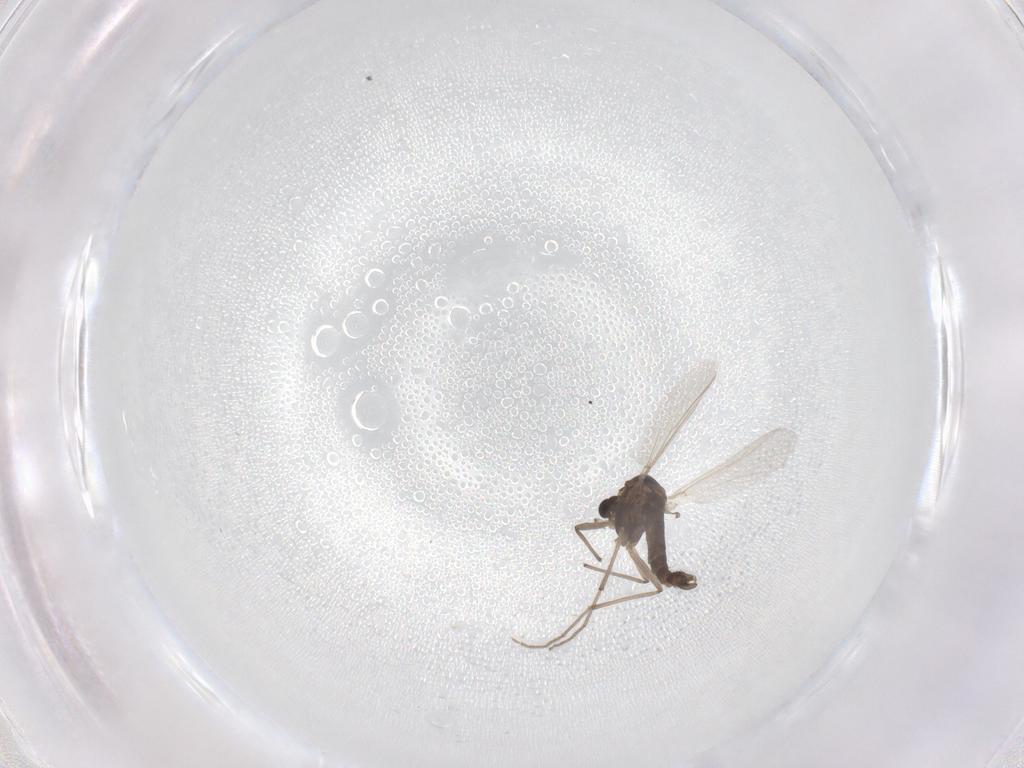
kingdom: Animalia
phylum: Arthropoda
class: Insecta
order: Diptera
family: Chironomidae
